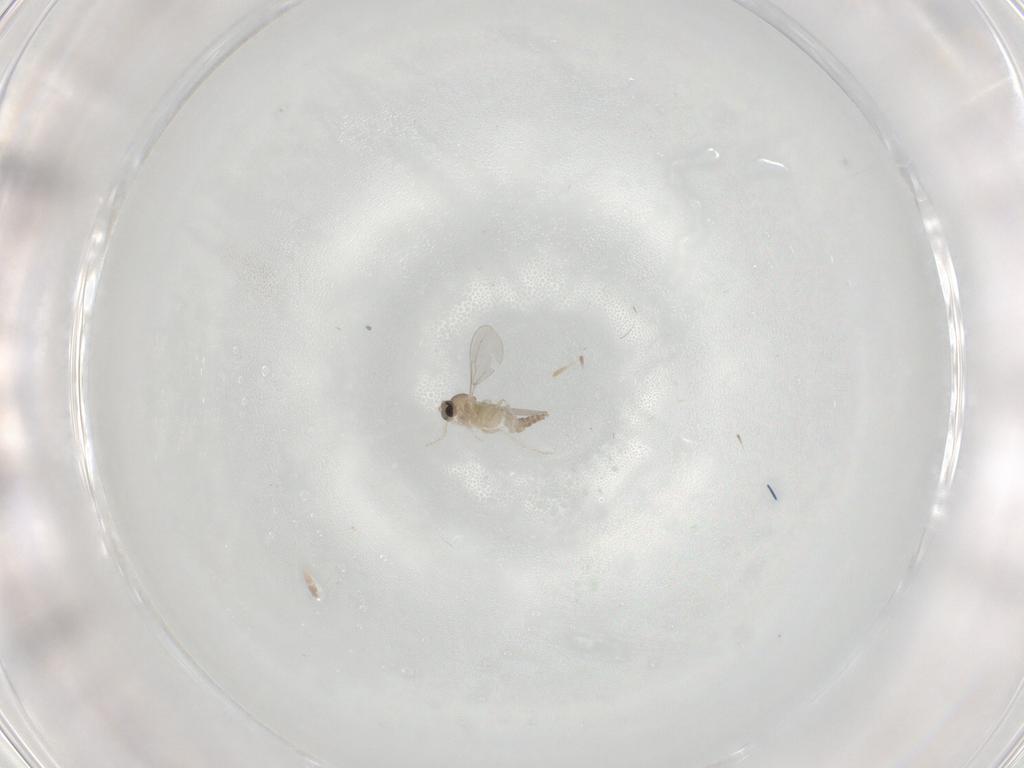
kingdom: Animalia
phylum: Arthropoda
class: Insecta
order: Diptera
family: Cecidomyiidae
